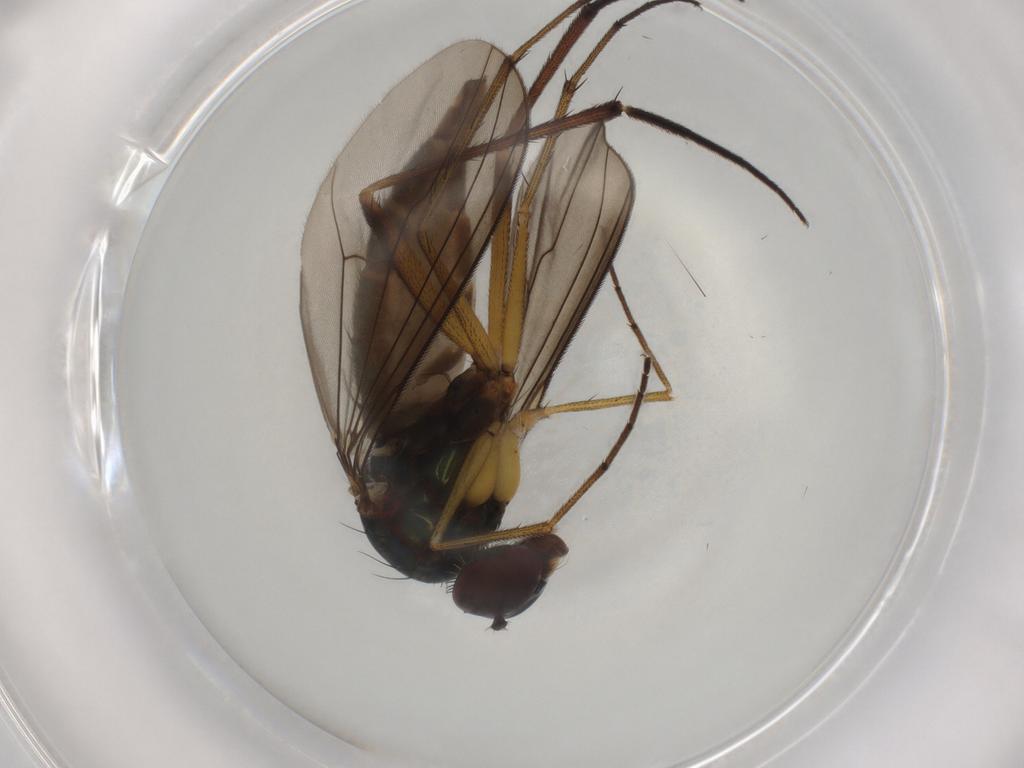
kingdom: Animalia
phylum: Arthropoda
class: Insecta
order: Diptera
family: Dolichopodidae
